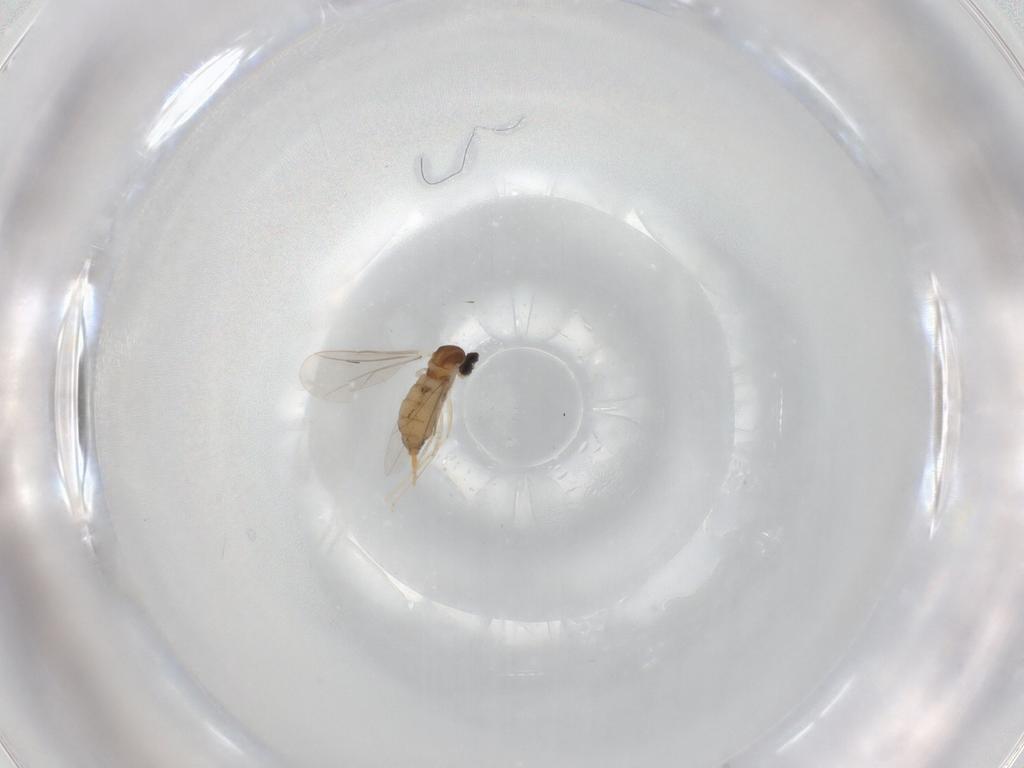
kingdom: Animalia
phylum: Arthropoda
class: Insecta
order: Diptera
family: Cecidomyiidae
